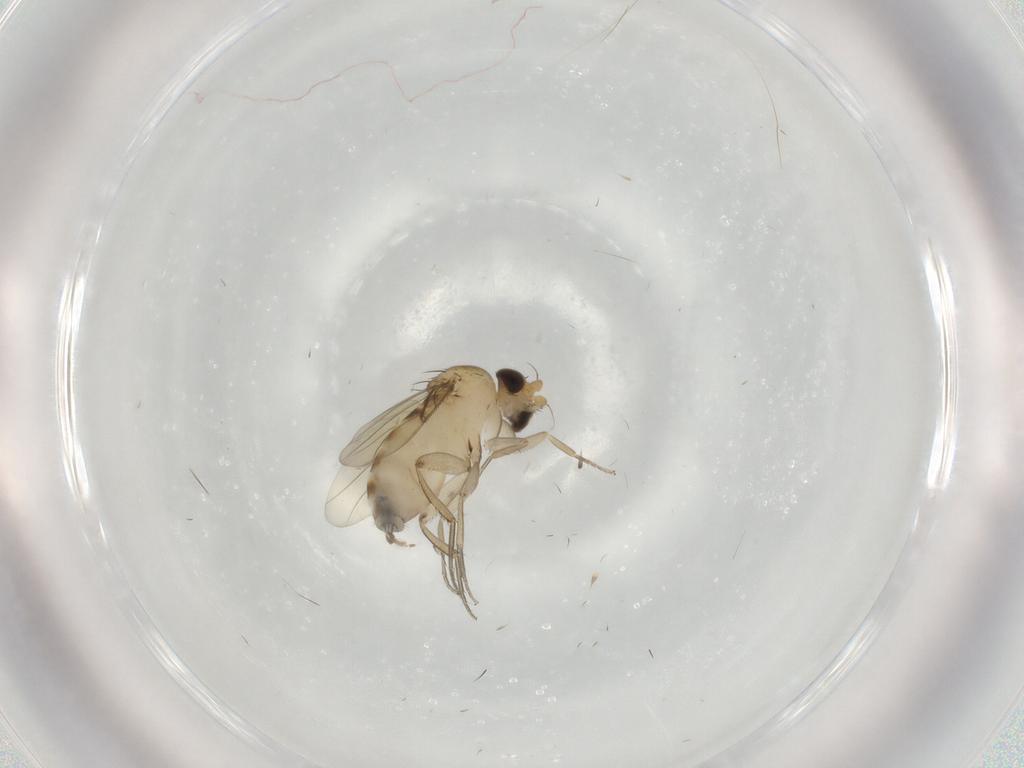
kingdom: Animalia
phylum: Arthropoda
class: Insecta
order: Diptera
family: Phoridae
